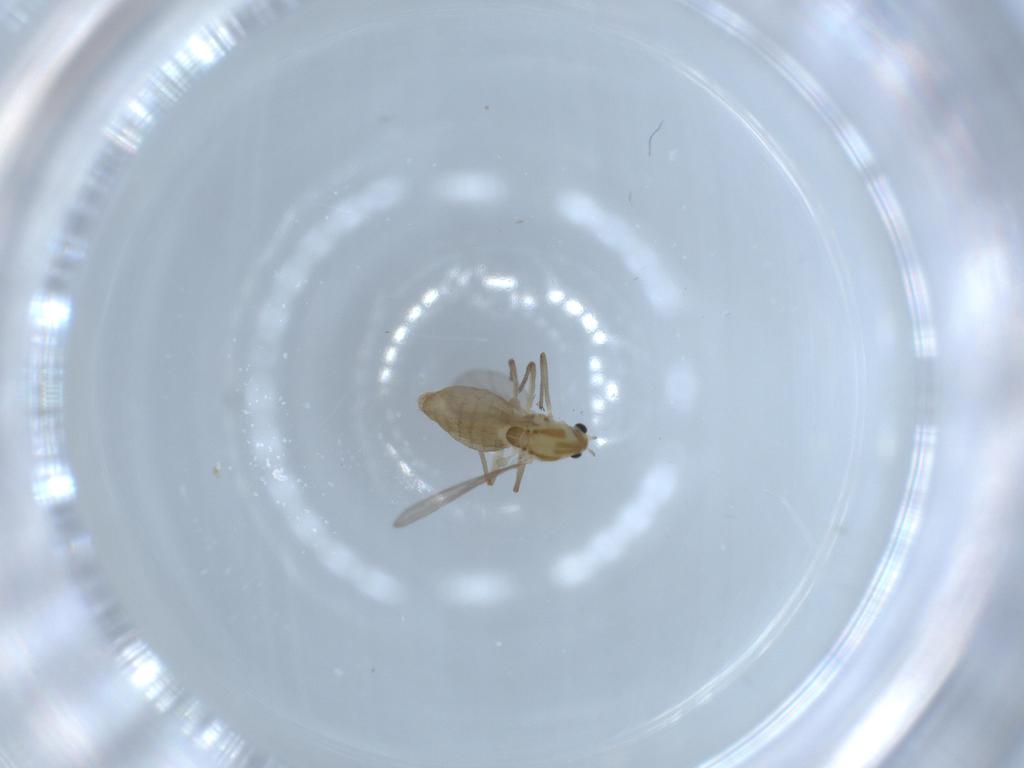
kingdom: Animalia
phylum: Arthropoda
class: Insecta
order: Diptera
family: Chironomidae
